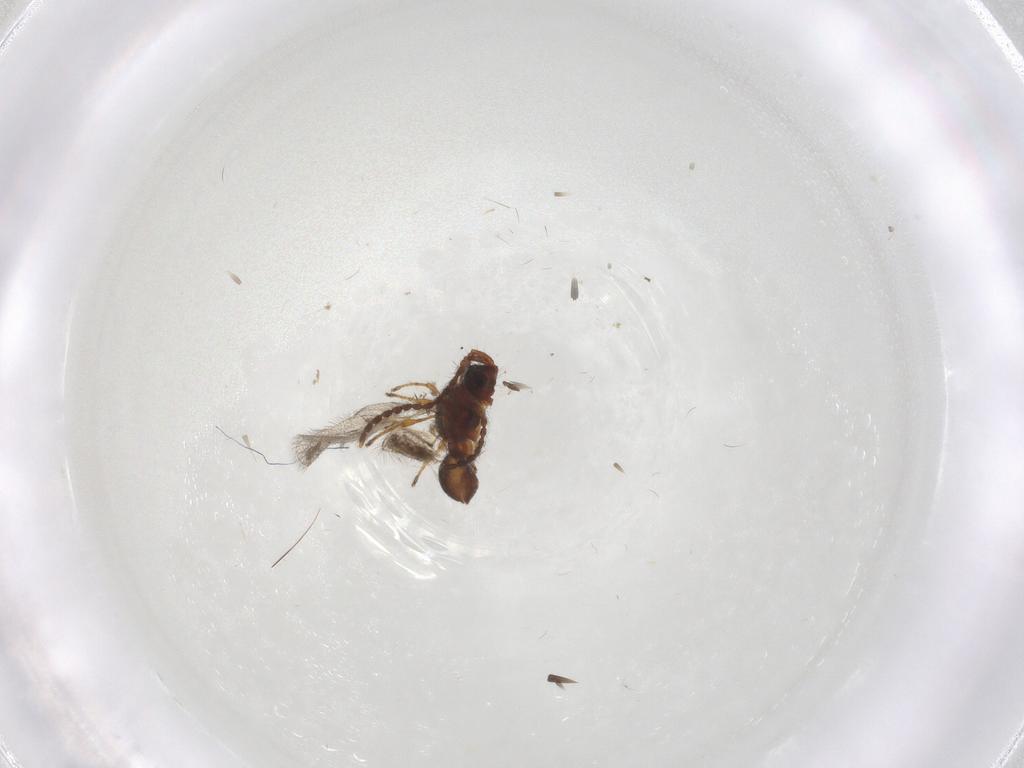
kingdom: Animalia
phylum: Arthropoda
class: Insecta
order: Hymenoptera
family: Diapriidae
